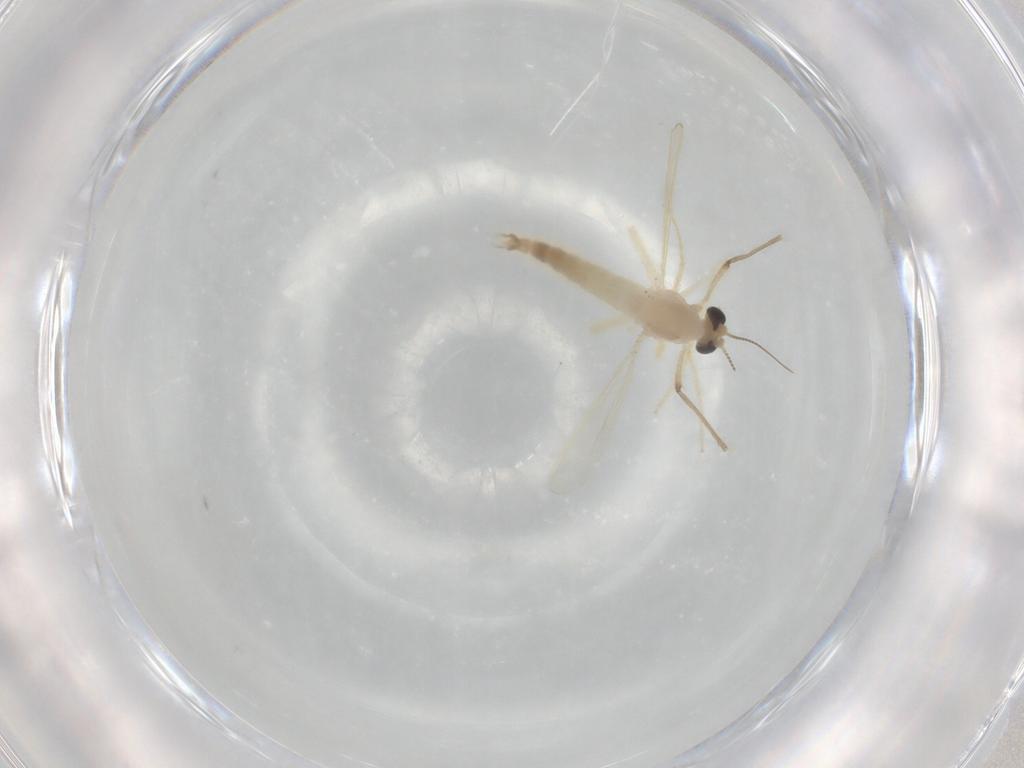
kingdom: Animalia
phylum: Arthropoda
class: Insecta
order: Diptera
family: Chironomidae
